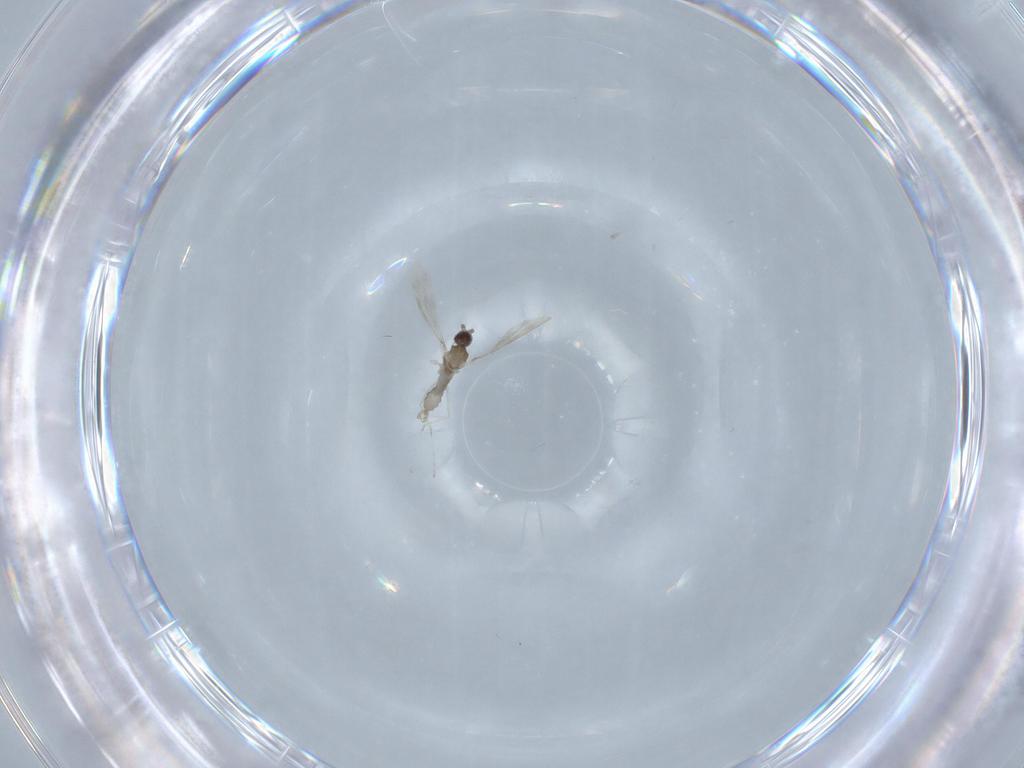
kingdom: Animalia
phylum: Arthropoda
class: Insecta
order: Diptera
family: Cecidomyiidae
